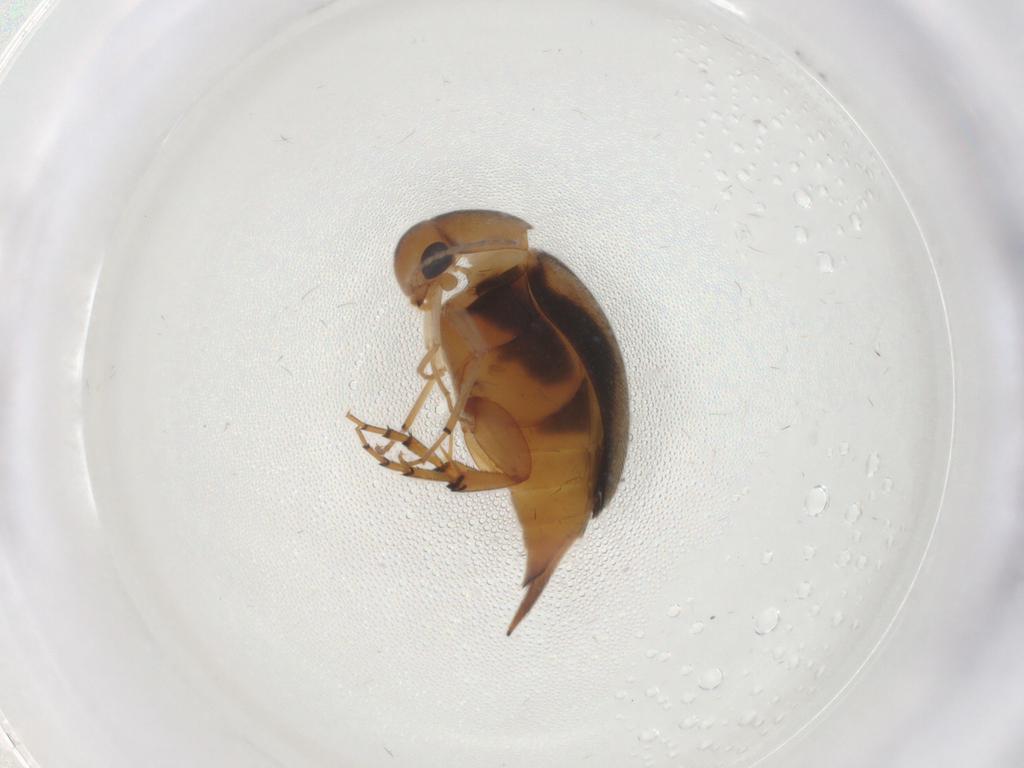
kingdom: Animalia
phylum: Arthropoda
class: Insecta
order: Coleoptera
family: Mordellidae
